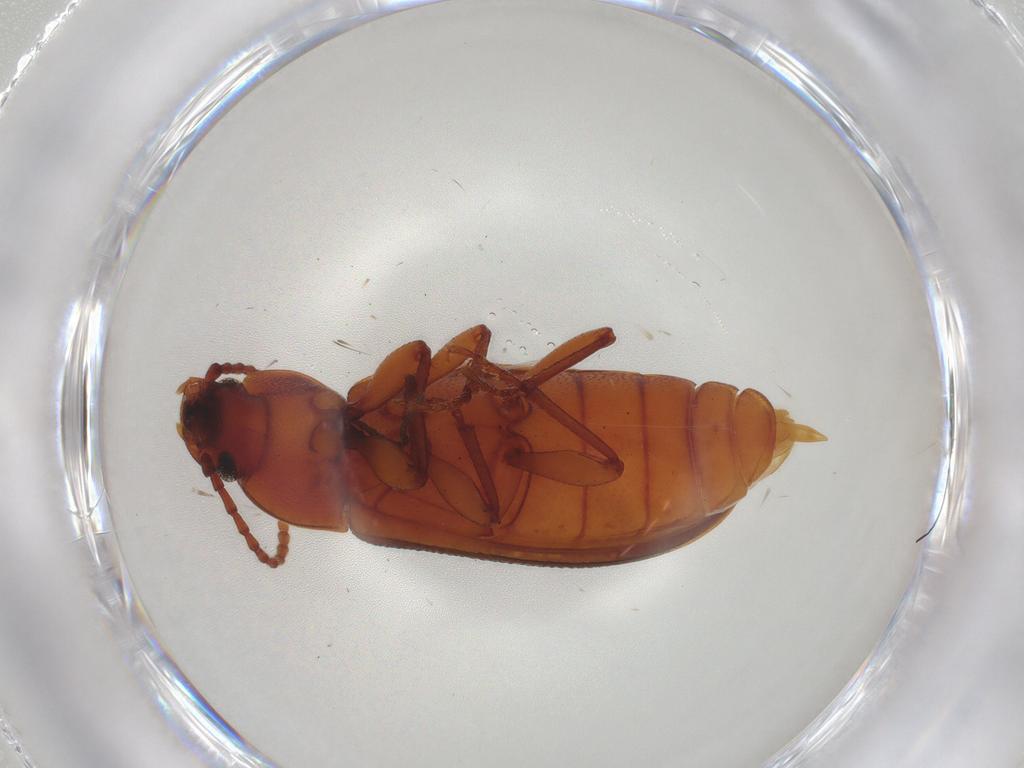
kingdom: Animalia
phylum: Arthropoda
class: Insecta
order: Coleoptera
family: Tenebrionidae
